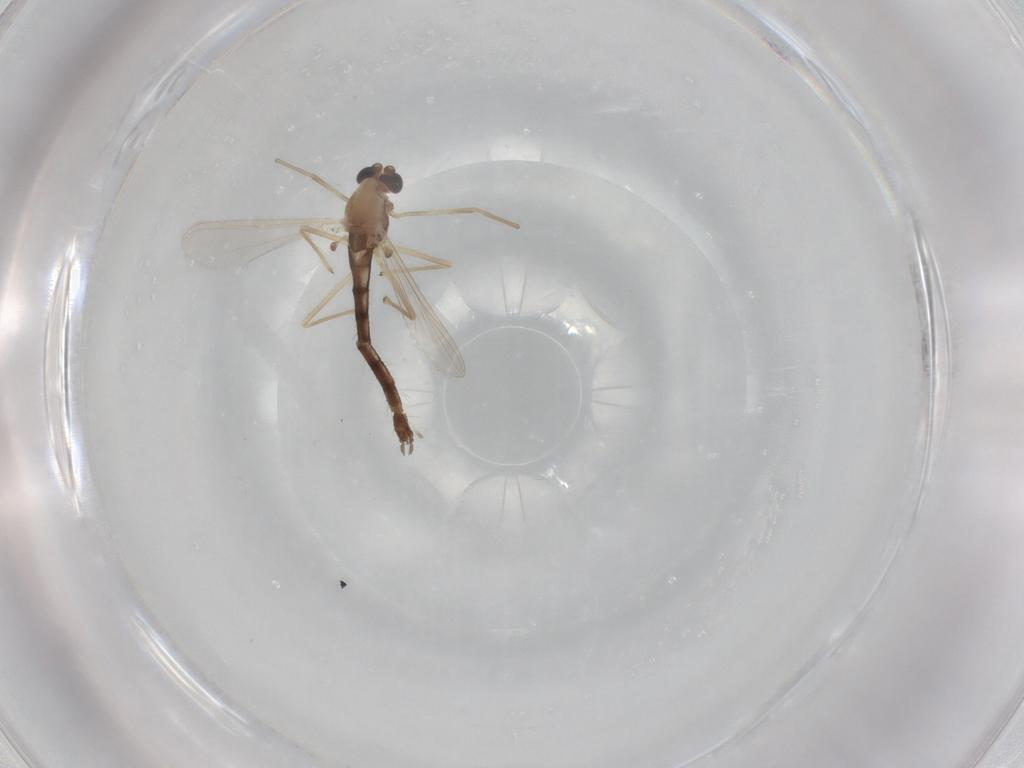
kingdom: Animalia
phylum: Arthropoda
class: Insecta
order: Diptera
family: Chironomidae
